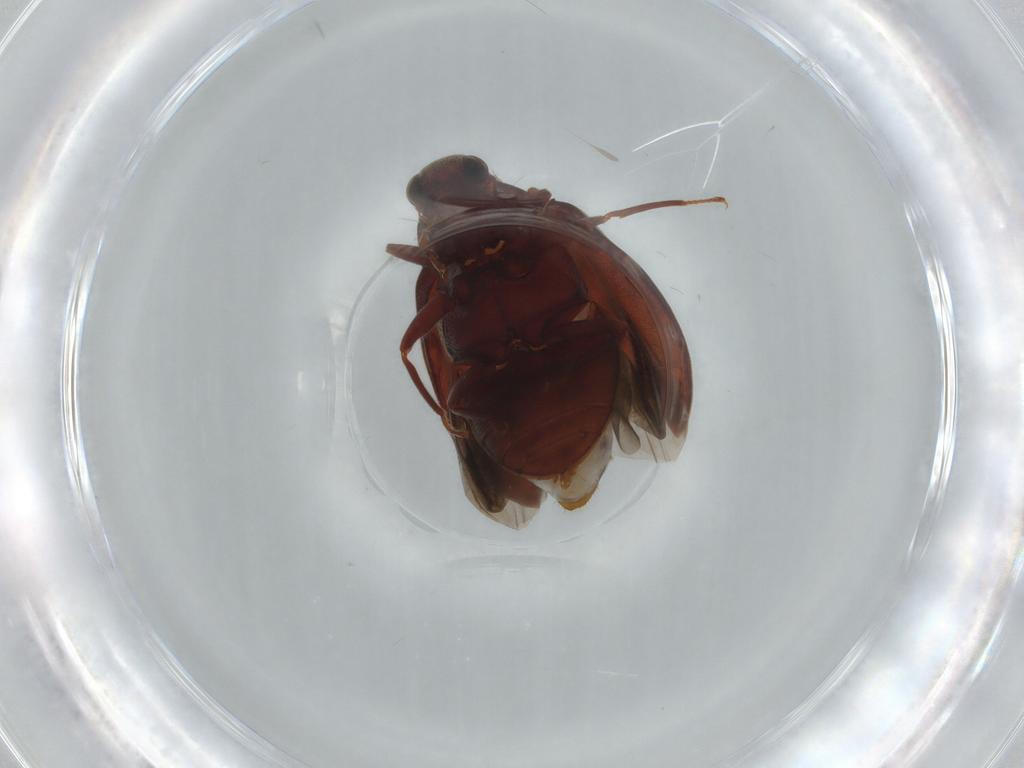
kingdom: Animalia
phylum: Arthropoda
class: Insecta
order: Coleoptera
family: Limnichidae
